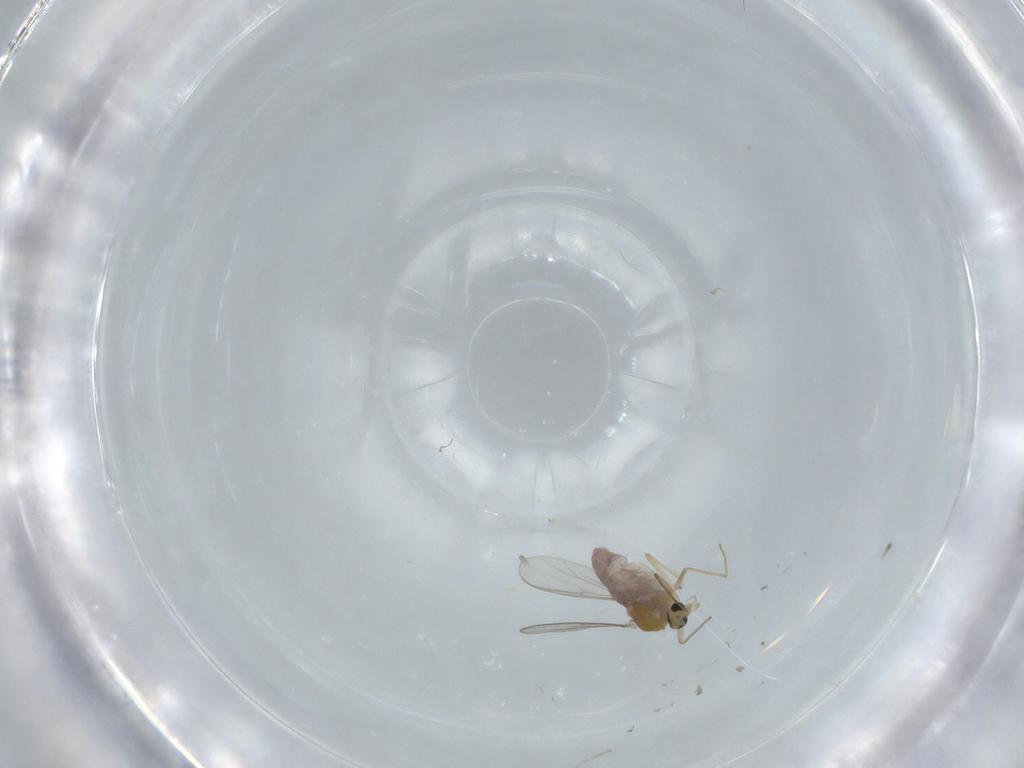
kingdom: Animalia
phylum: Arthropoda
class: Insecta
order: Diptera
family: Chironomidae
